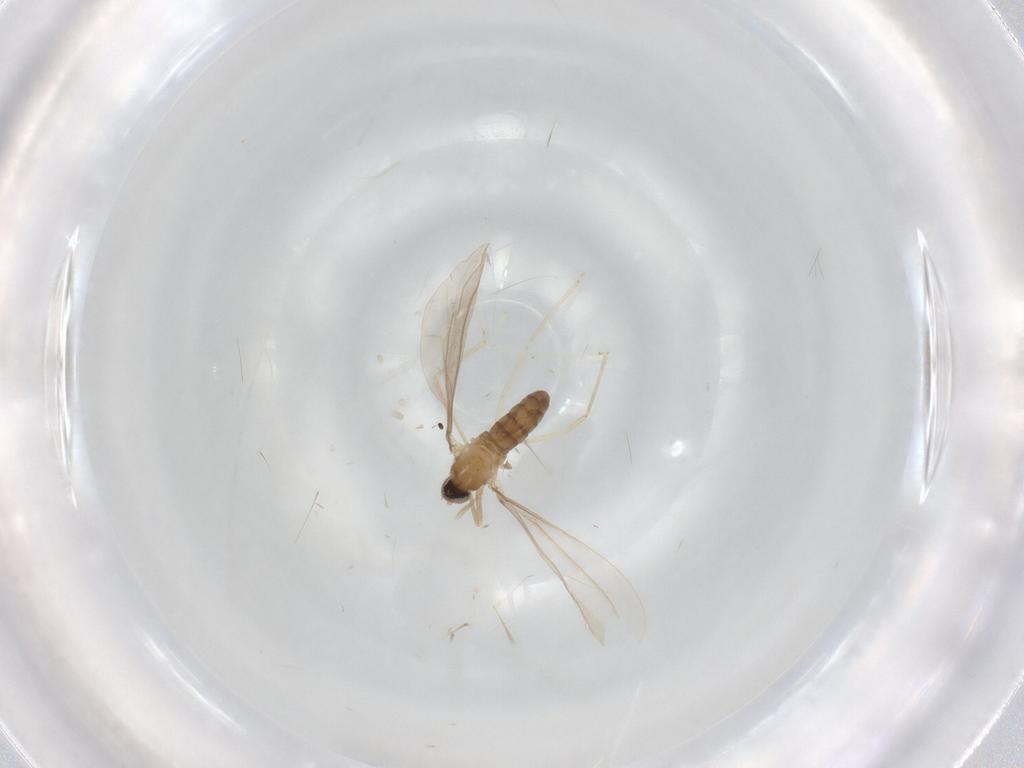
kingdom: Animalia
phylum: Arthropoda
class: Insecta
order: Diptera
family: Cecidomyiidae
